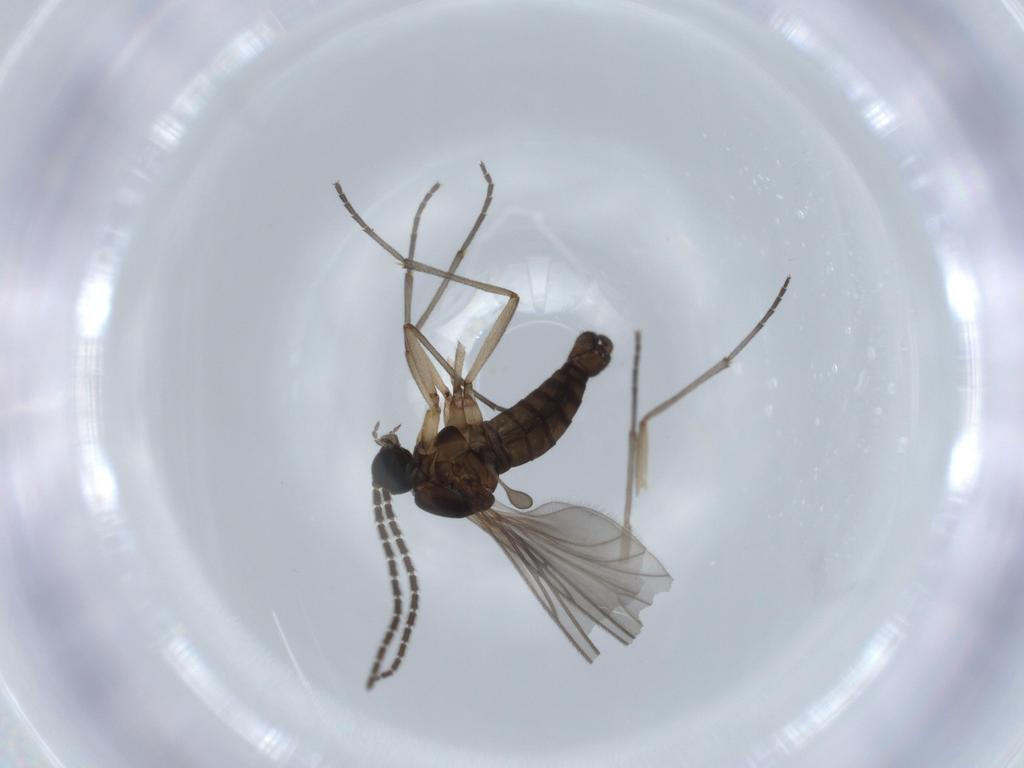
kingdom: Animalia
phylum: Arthropoda
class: Insecta
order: Diptera
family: Sciaridae
